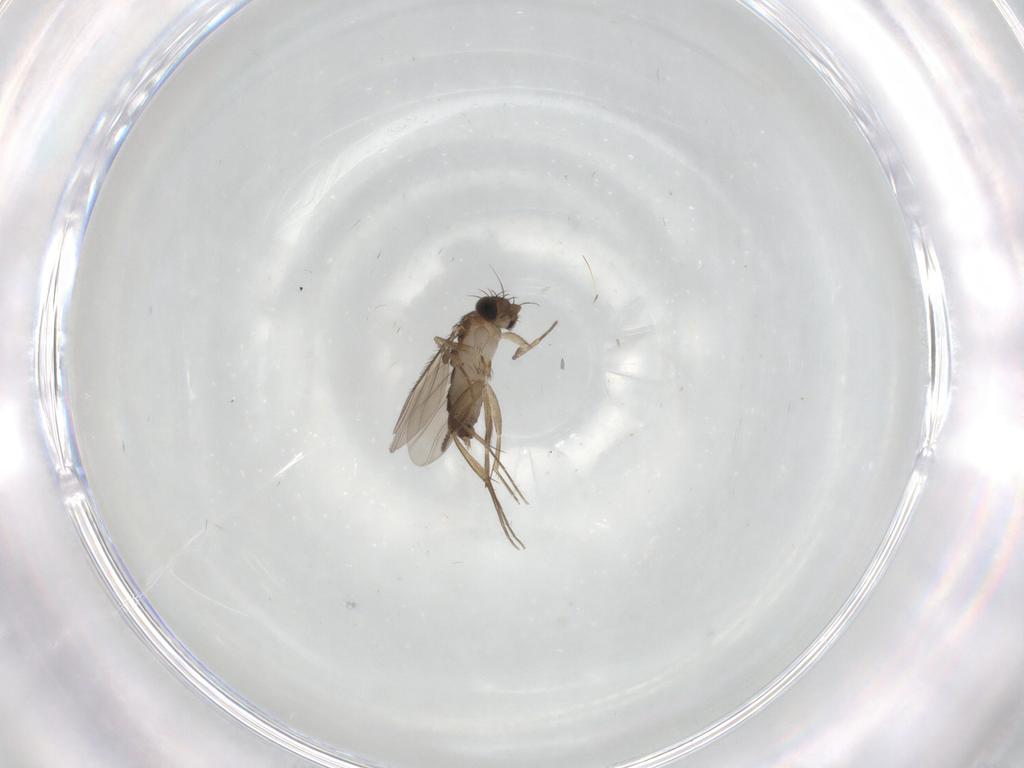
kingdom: Animalia
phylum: Arthropoda
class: Insecta
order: Diptera
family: Phoridae
